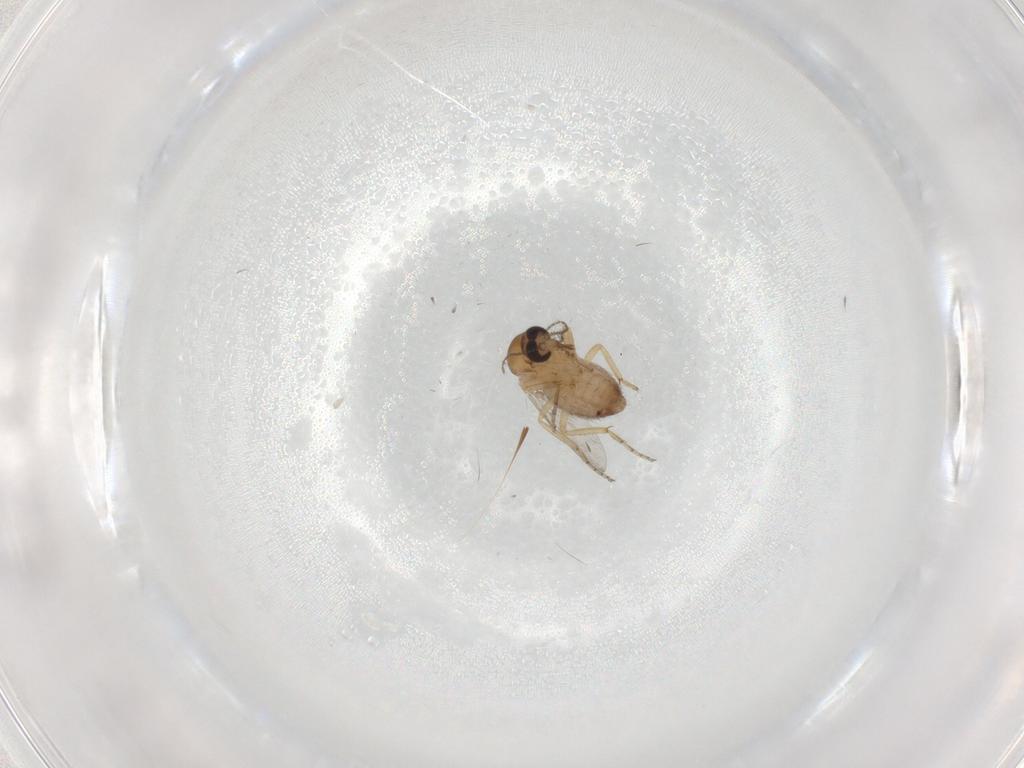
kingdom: Animalia
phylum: Arthropoda
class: Insecta
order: Diptera
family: Ceratopogonidae
